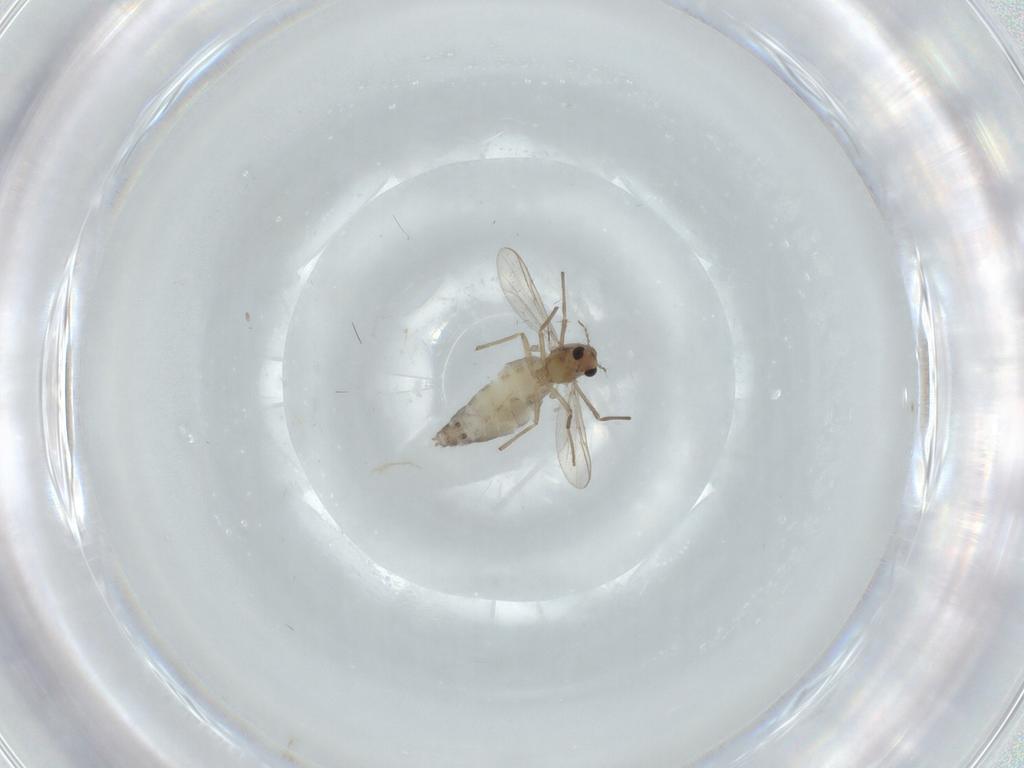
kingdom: Animalia
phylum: Arthropoda
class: Insecta
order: Diptera
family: Chironomidae
